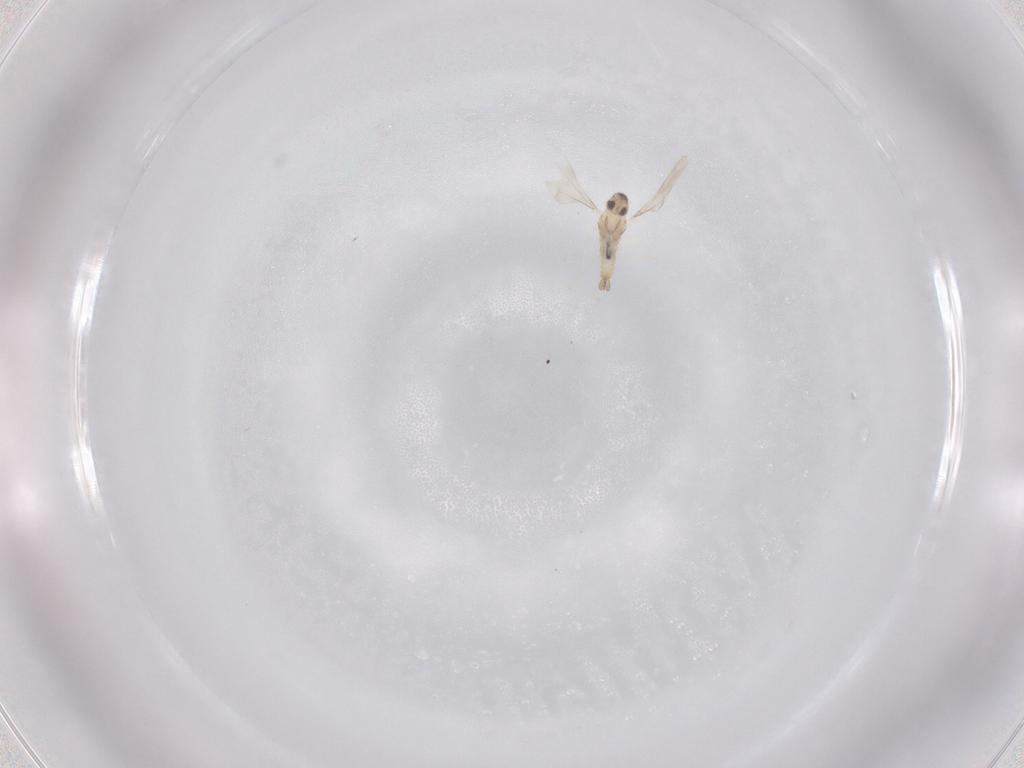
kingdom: Animalia
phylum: Arthropoda
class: Insecta
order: Diptera
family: Cecidomyiidae
